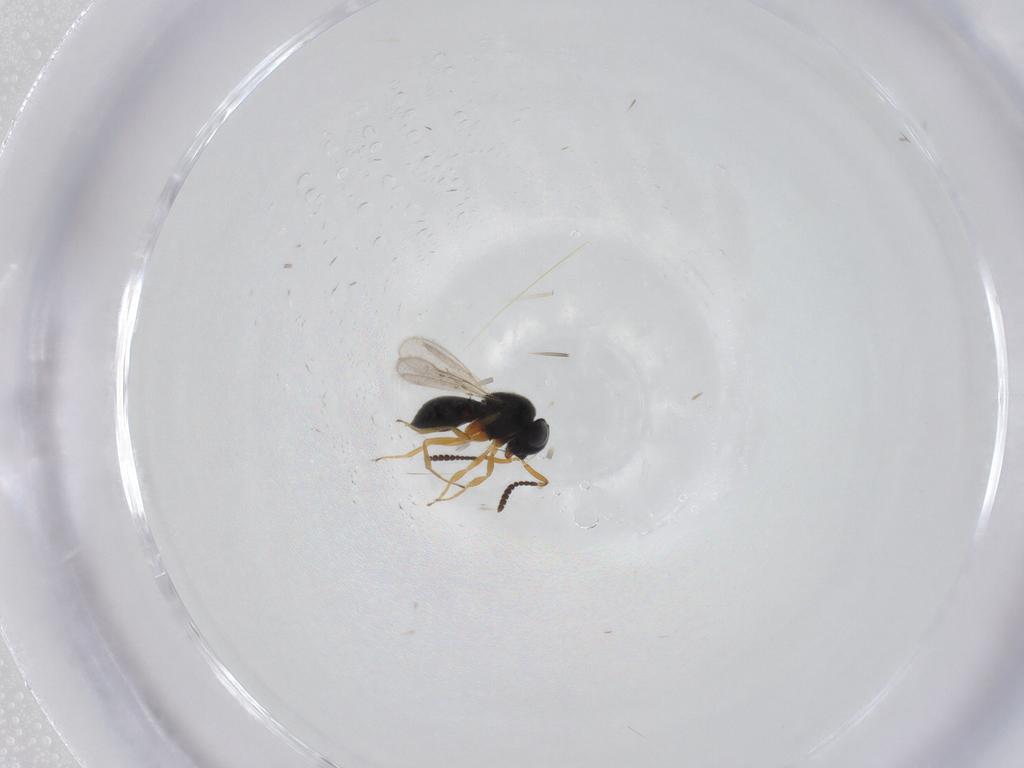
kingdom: Animalia
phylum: Arthropoda
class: Insecta
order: Hymenoptera
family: Scelionidae
